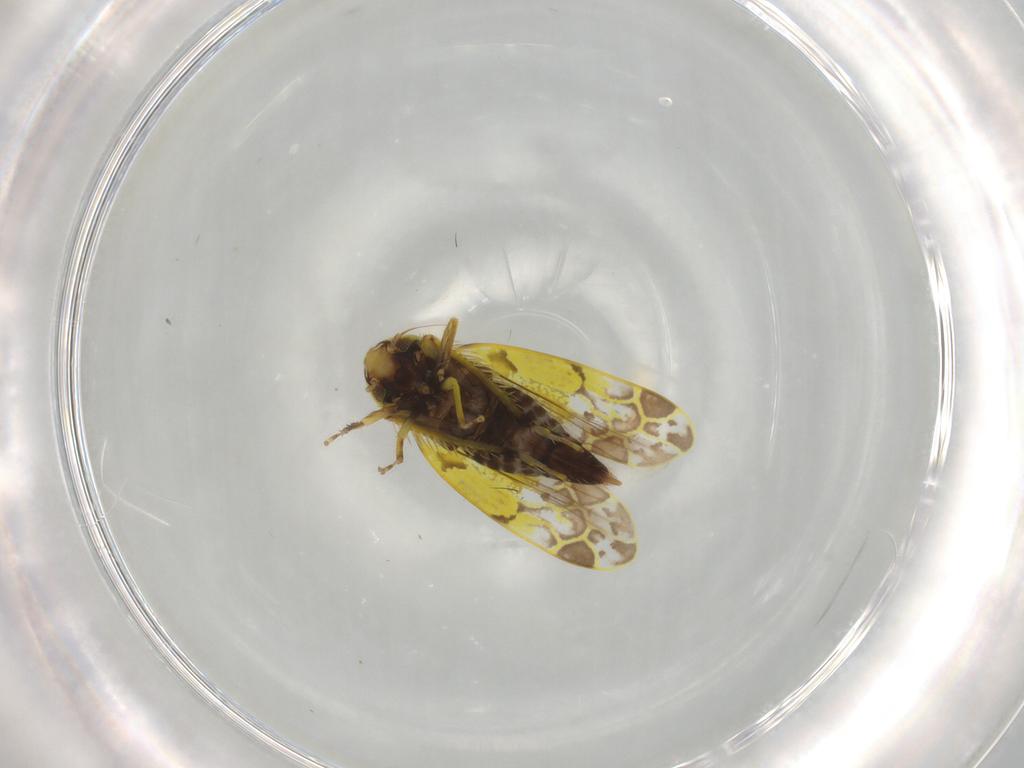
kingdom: Animalia
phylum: Arthropoda
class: Insecta
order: Hemiptera
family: Cicadellidae
